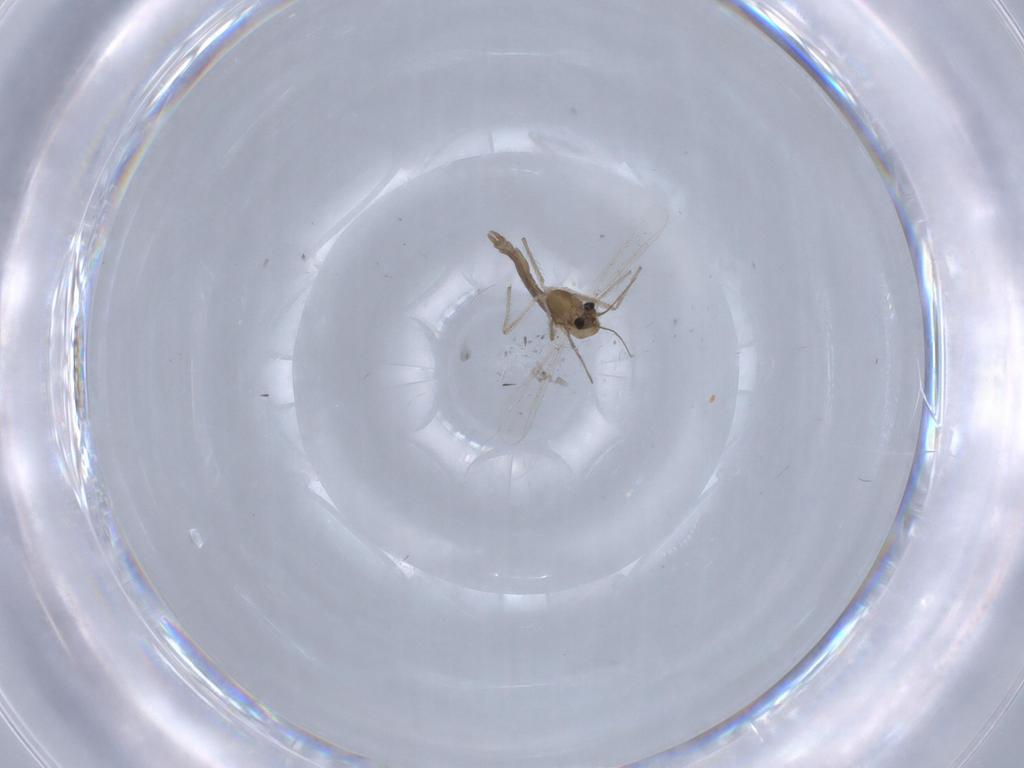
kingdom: Animalia
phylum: Arthropoda
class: Insecta
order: Diptera
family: Chironomidae
